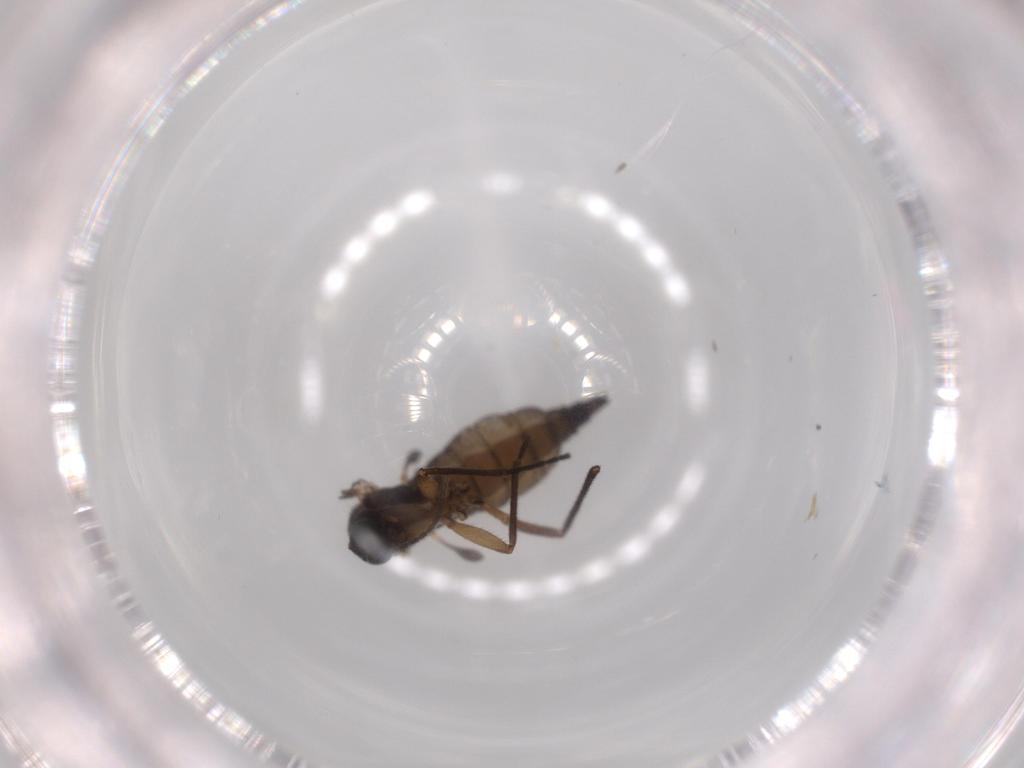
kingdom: Animalia
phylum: Arthropoda
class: Insecta
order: Diptera
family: Sciaridae
